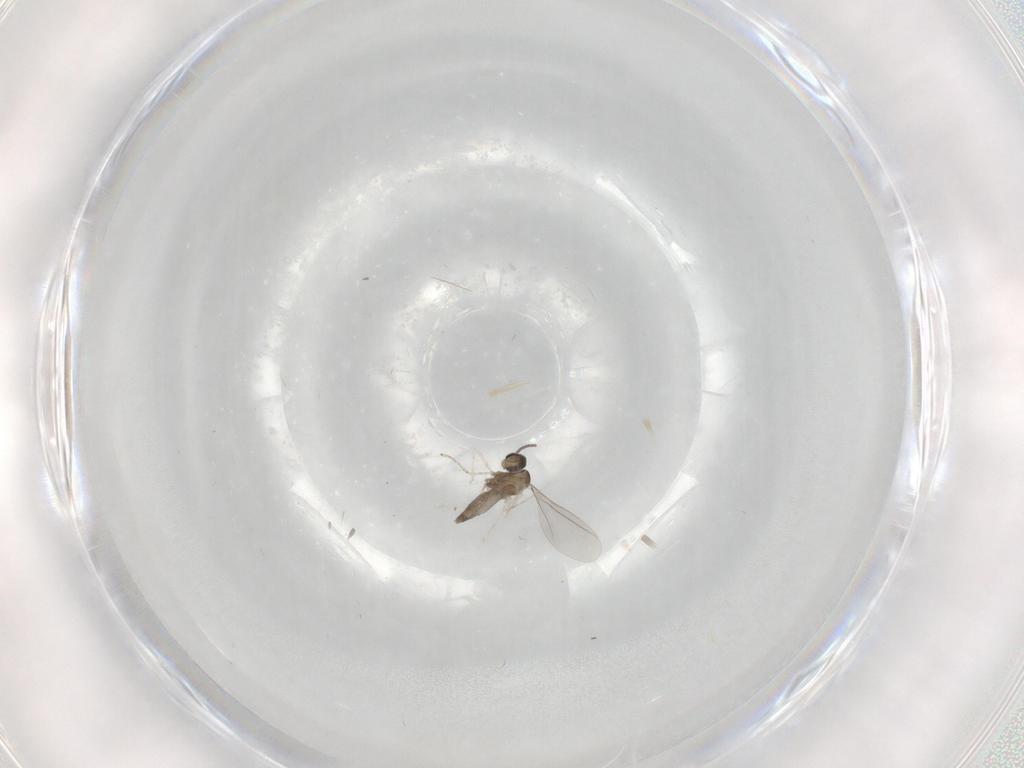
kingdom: Animalia
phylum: Arthropoda
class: Insecta
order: Diptera
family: Cecidomyiidae
